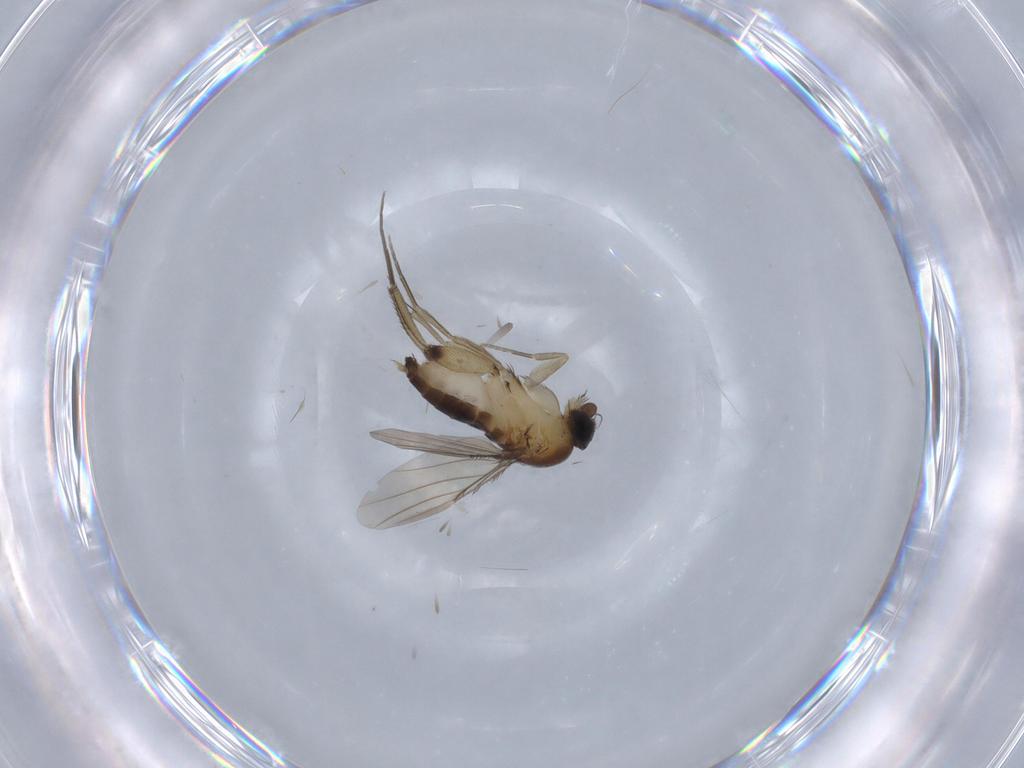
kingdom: Animalia
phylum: Arthropoda
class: Insecta
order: Diptera
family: Phoridae
